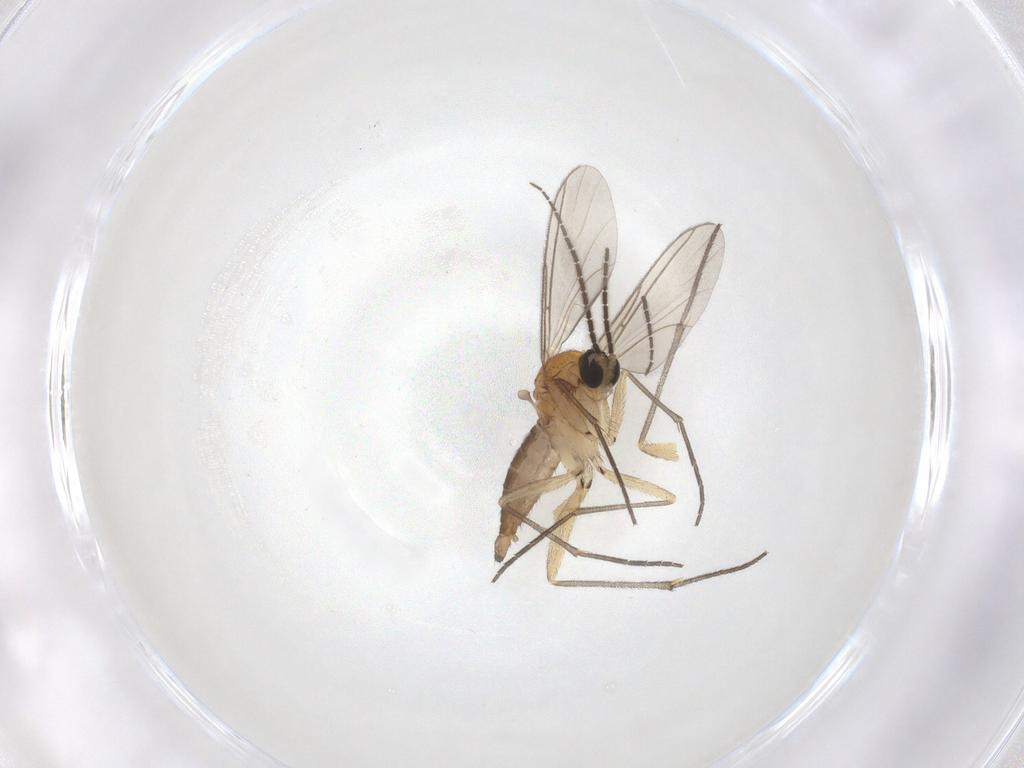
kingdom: Animalia
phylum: Arthropoda
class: Insecta
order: Diptera
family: Sciaridae
